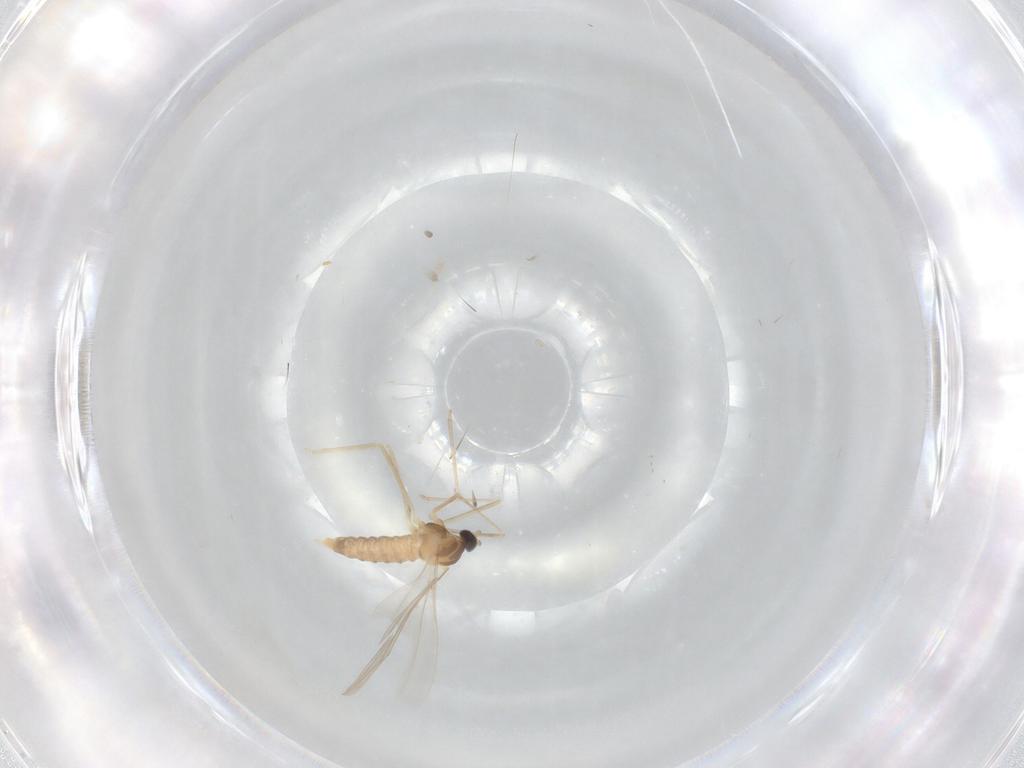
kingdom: Animalia
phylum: Arthropoda
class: Insecta
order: Diptera
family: Cecidomyiidae
